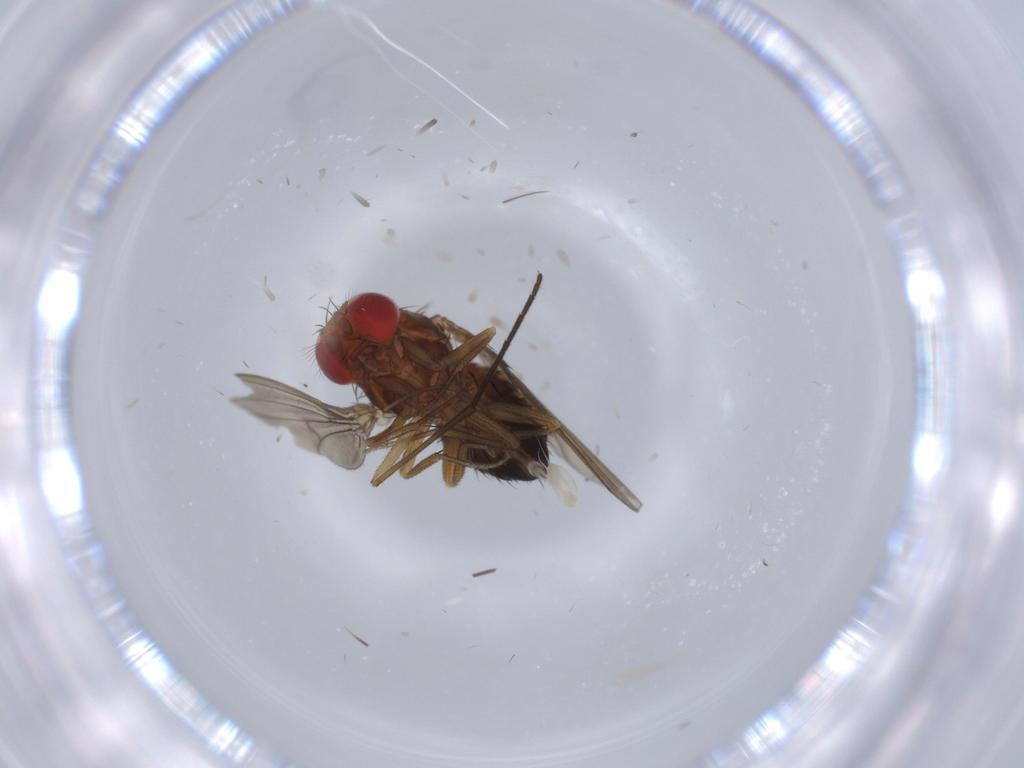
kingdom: Animalia
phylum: Arthropoda
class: Insecta
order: Diptera
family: Drosophilidae
